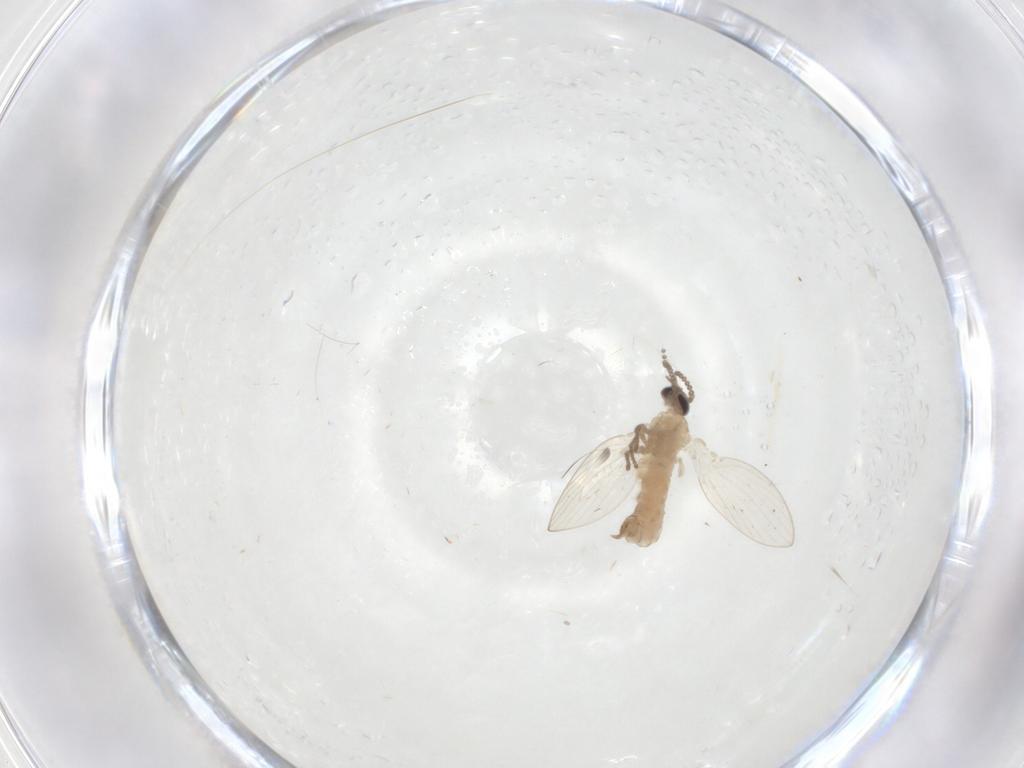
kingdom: Animalia
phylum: Arthropoda
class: Insecta
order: Diptera
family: Psychodidae
